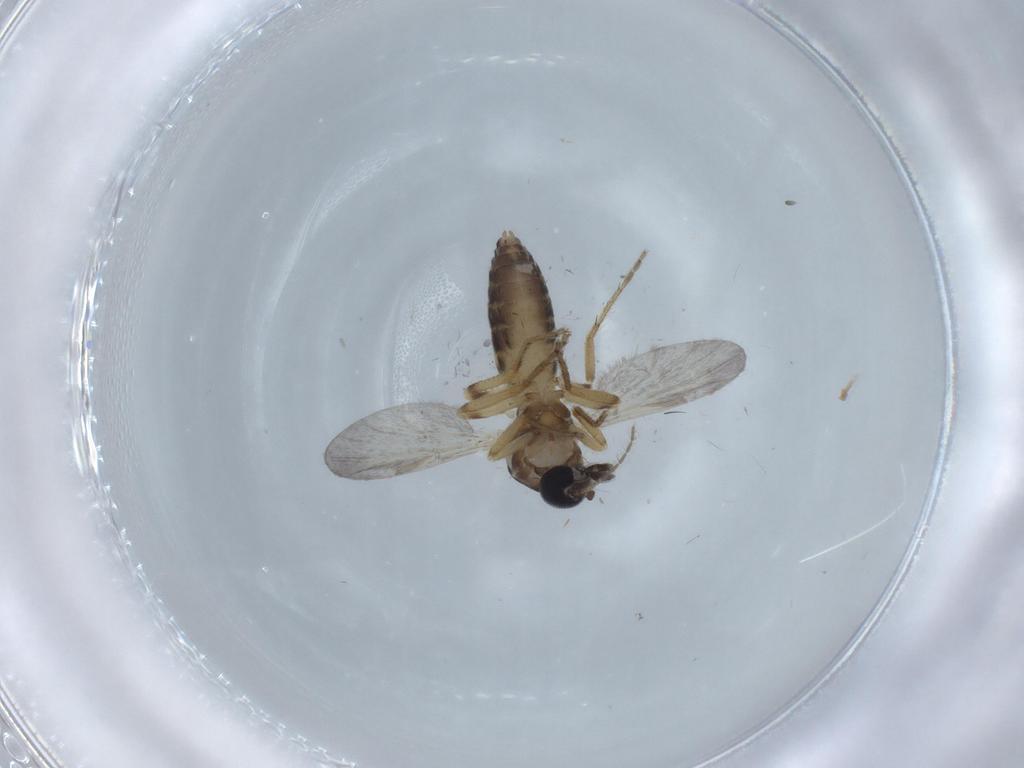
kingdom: Animalia
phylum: Arthropoda
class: Insecta
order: Diptera
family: Ceratopogonidae
